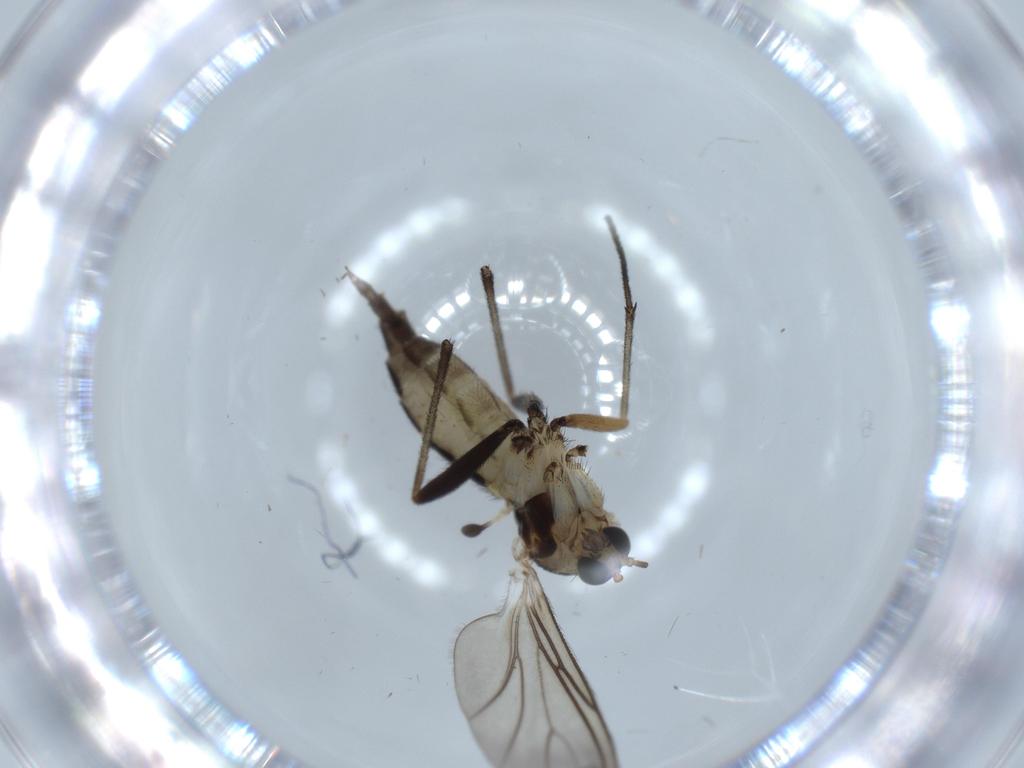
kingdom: Animalia
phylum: Arthropoda
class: Insecta
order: Diptera
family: Sciaridae
